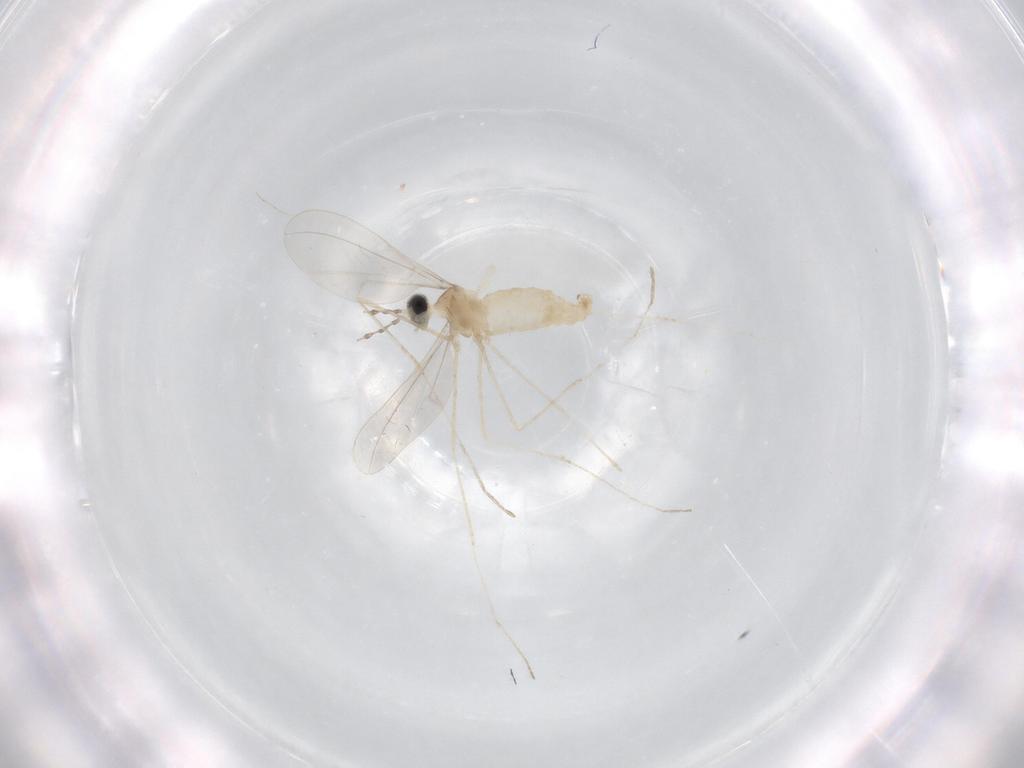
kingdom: Animalia
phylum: Arthropoda
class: Insecta
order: Diptera
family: Cecidomyiidae
